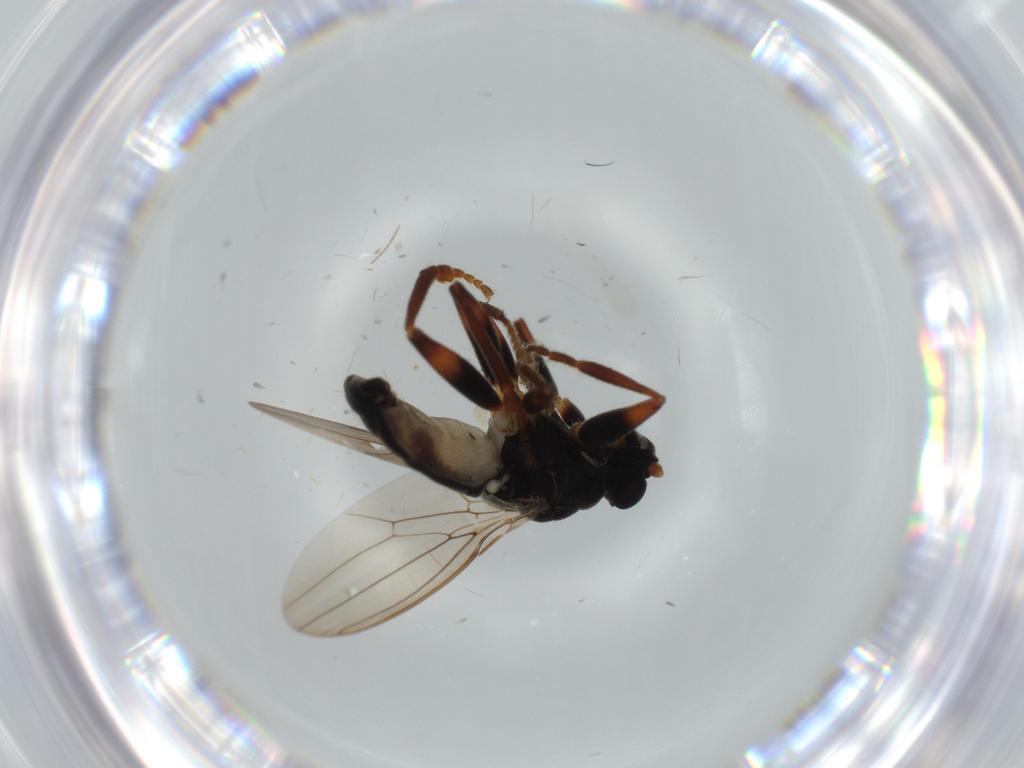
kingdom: Animalia
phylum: Arthropoda
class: Insecta
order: Diptera
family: Sphaeroceridae
